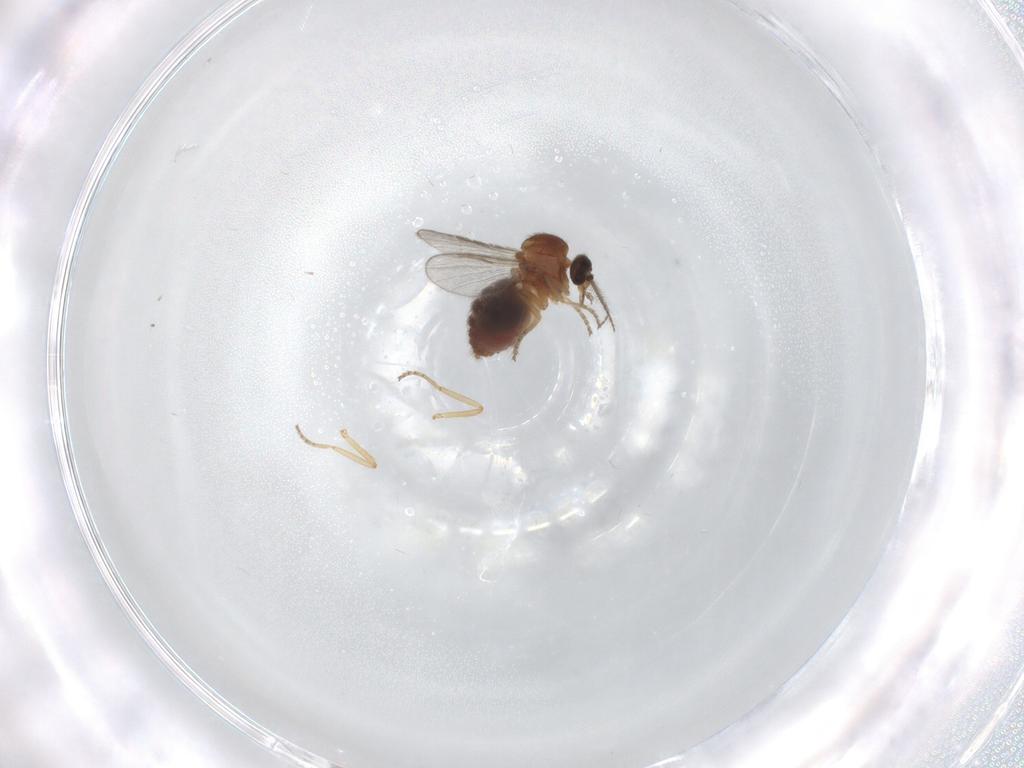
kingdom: Animalia
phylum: Arthropoda
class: Insecta
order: Diptera
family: Ceratopogonidae
